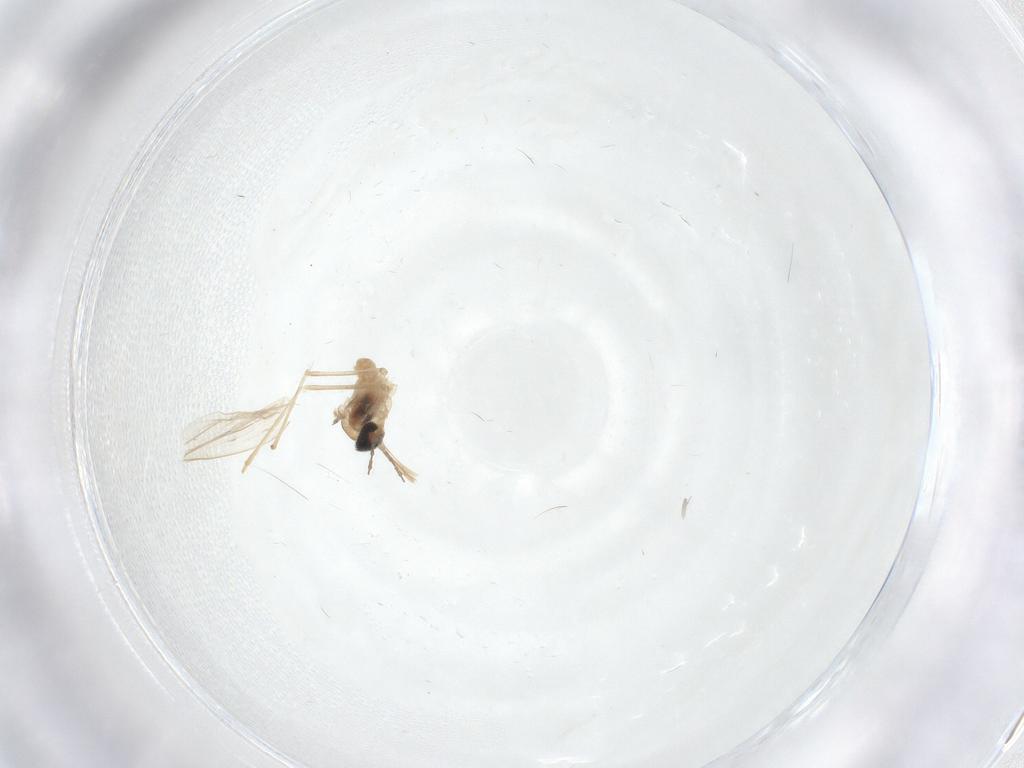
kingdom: Animalia
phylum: Arthropoda
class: Insecta
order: Diptera
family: Cecidomyiidae
